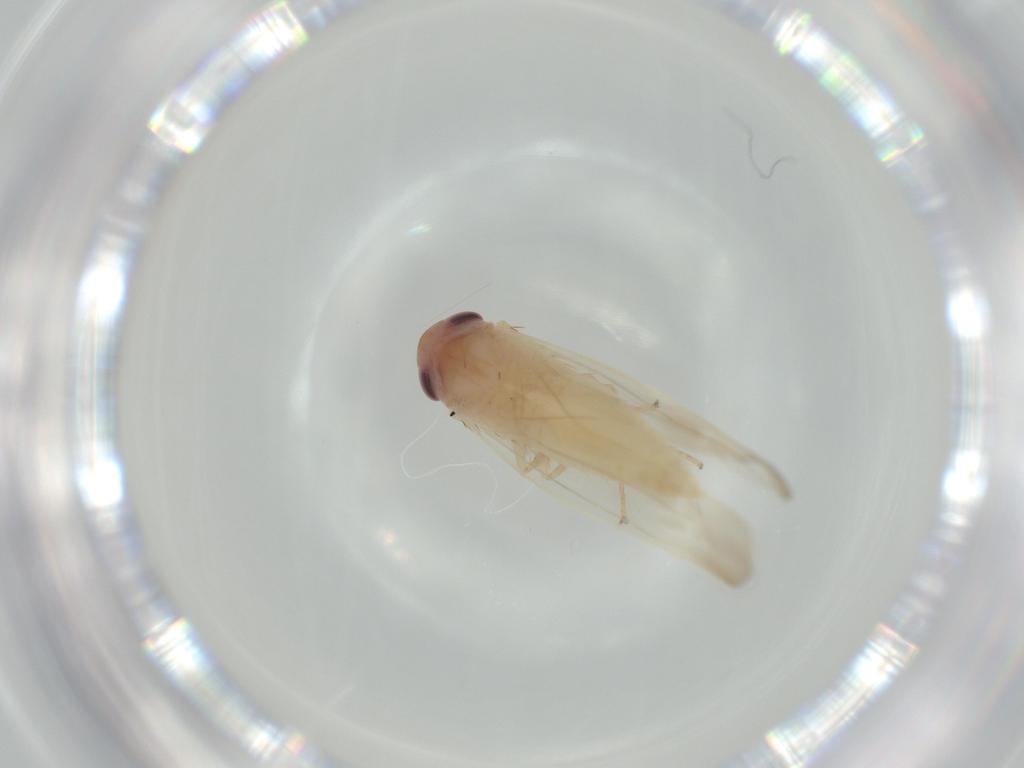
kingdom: Animalia
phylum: Arthropoda
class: Insecta
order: Hemiptera
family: Cicadellidae
